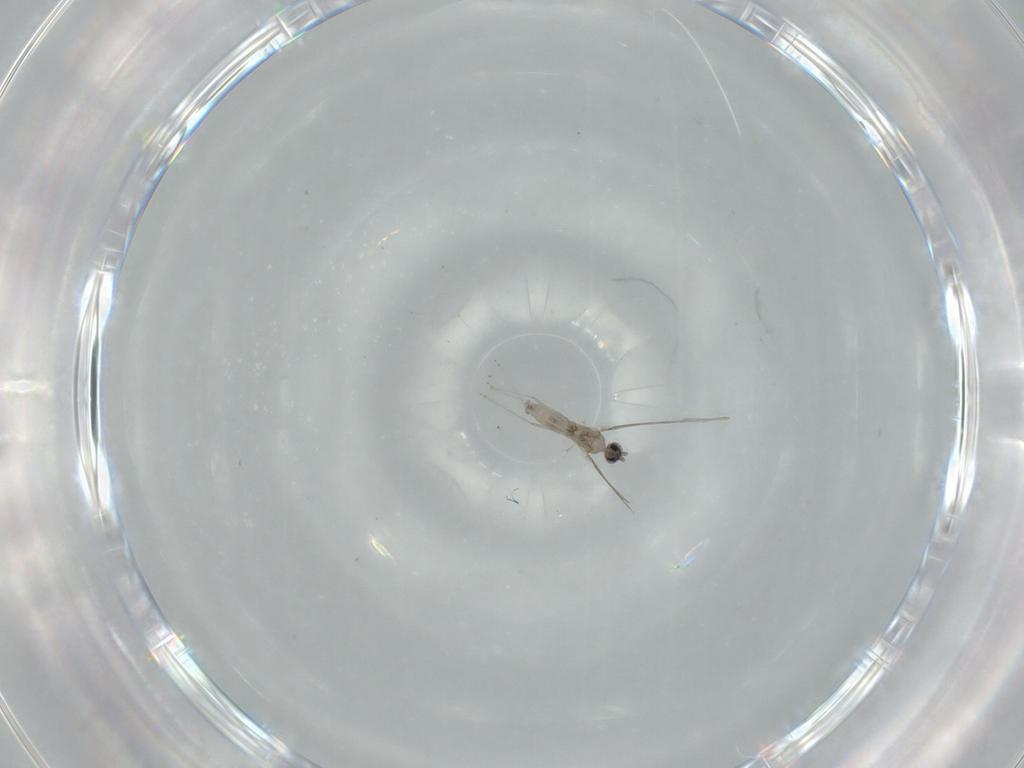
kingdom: Animalia
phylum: Arthropoda
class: Insecta
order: Diptera
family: Cecidomyiidae
